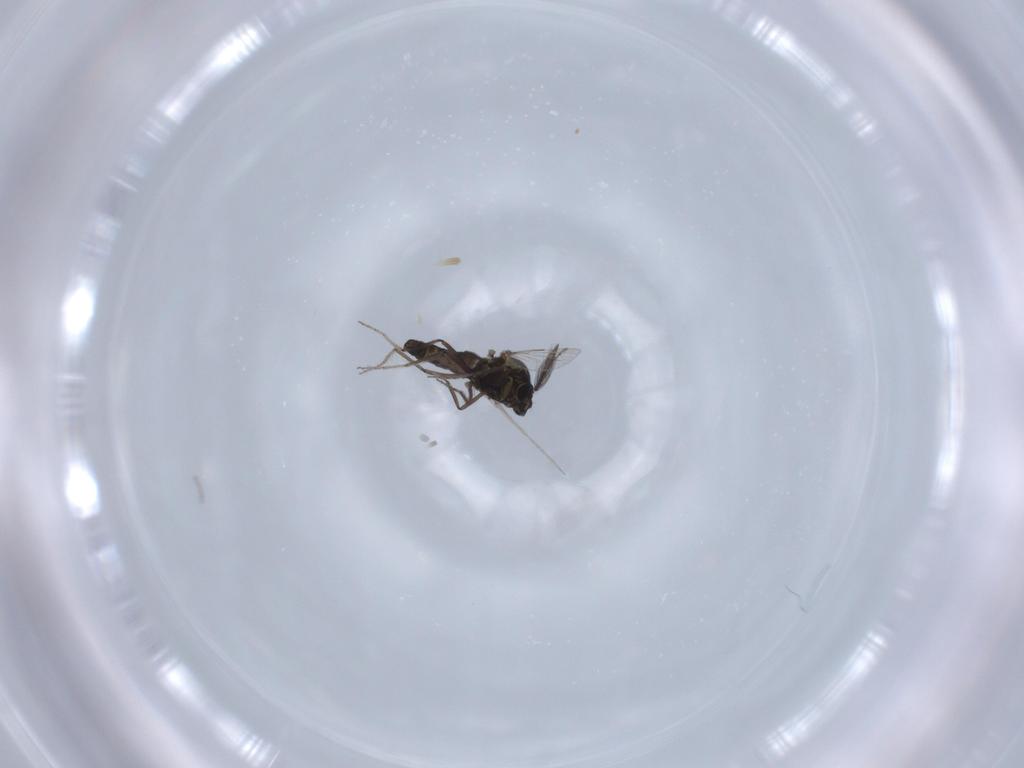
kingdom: Animalia
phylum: Arthropoda
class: Insecta
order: Diptera
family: Ceratopogonidae
